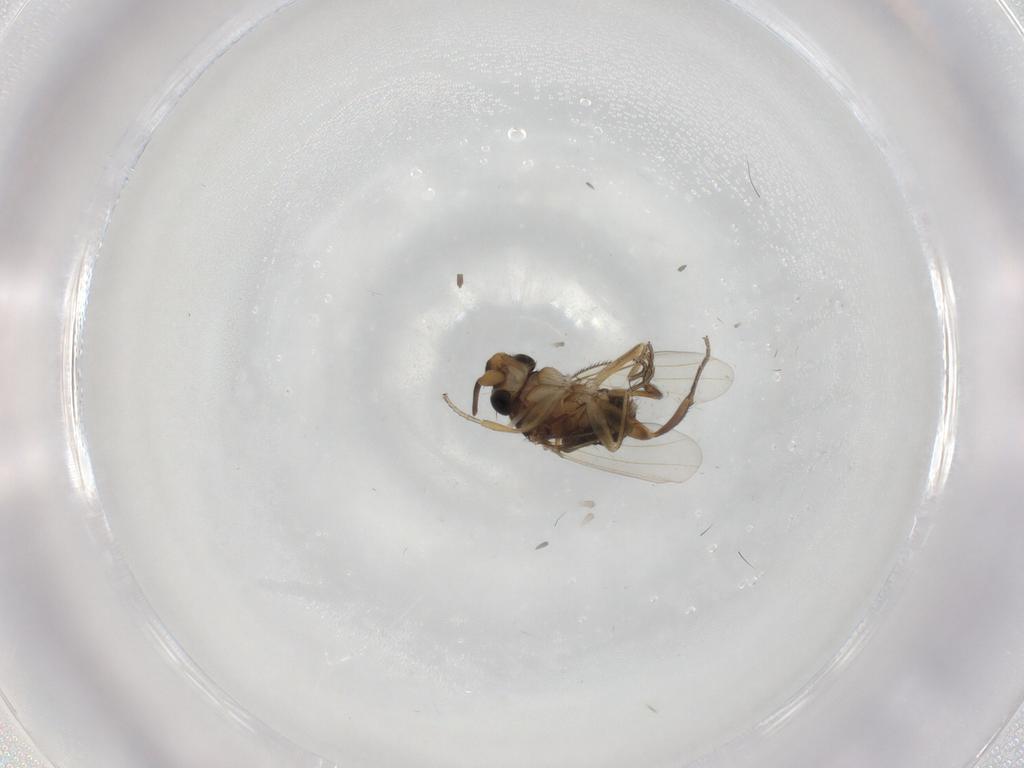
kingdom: Animalia
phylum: Arthropoda
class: Insecta
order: Diptera
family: Phoridae
